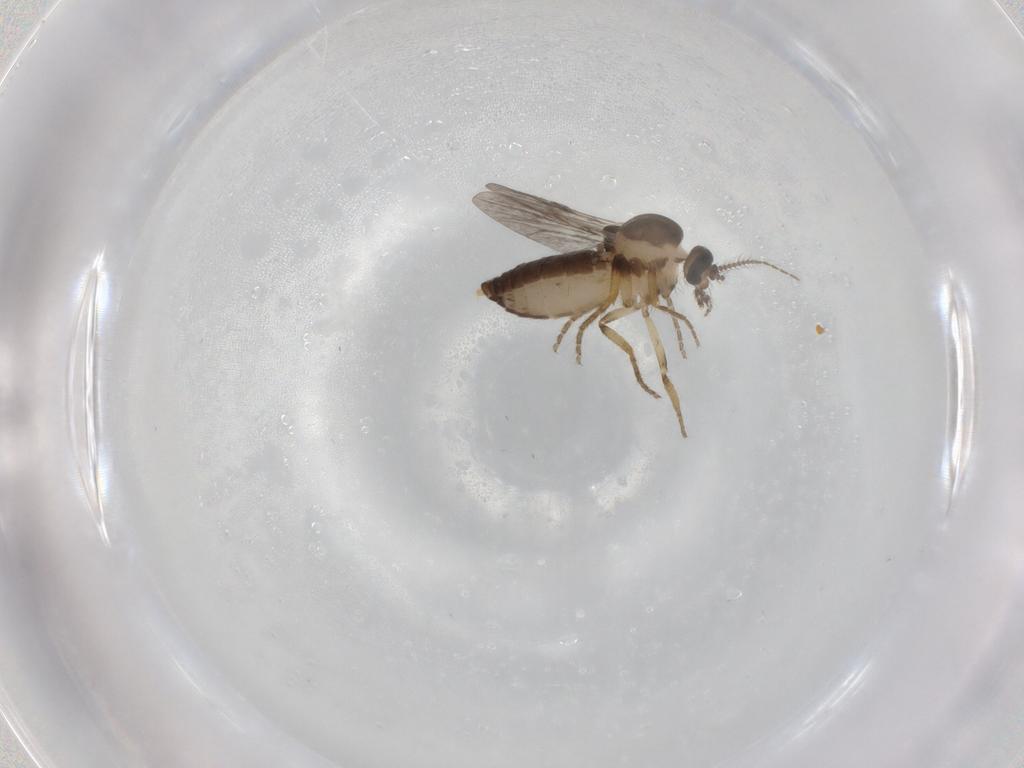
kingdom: Animalia
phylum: Arthropoda
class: Insecta
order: Diptera
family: Ceratopogonidae
